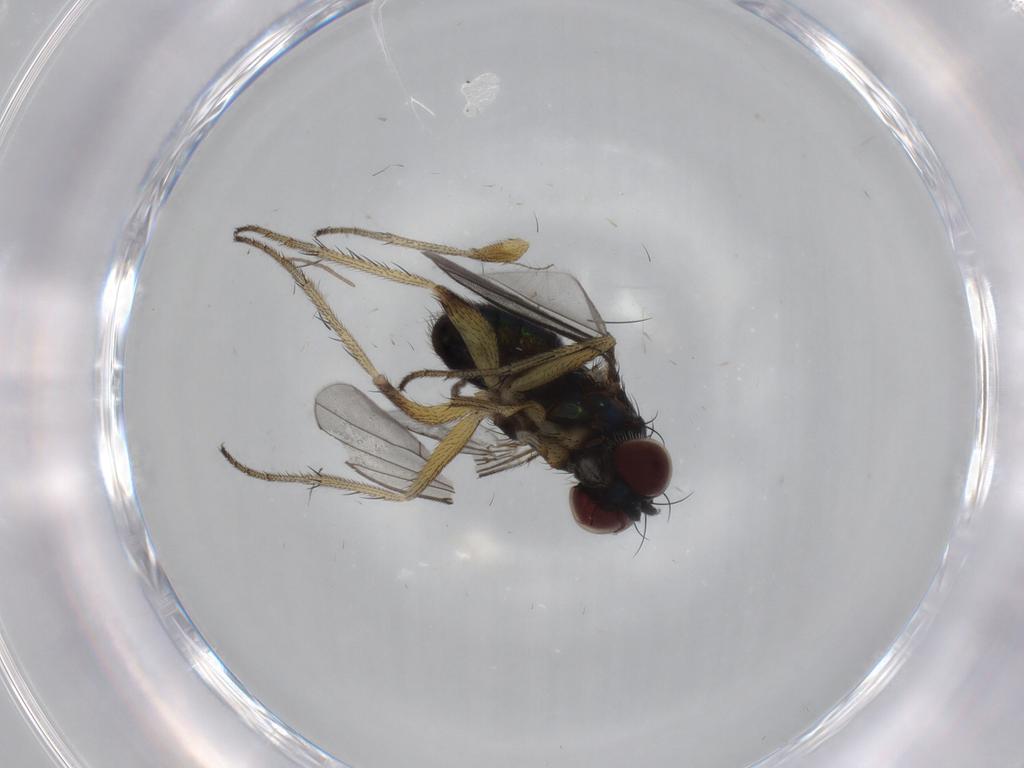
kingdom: Animalia
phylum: Arthropoda
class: Insecta
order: Diptera
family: Dolichopodidae
